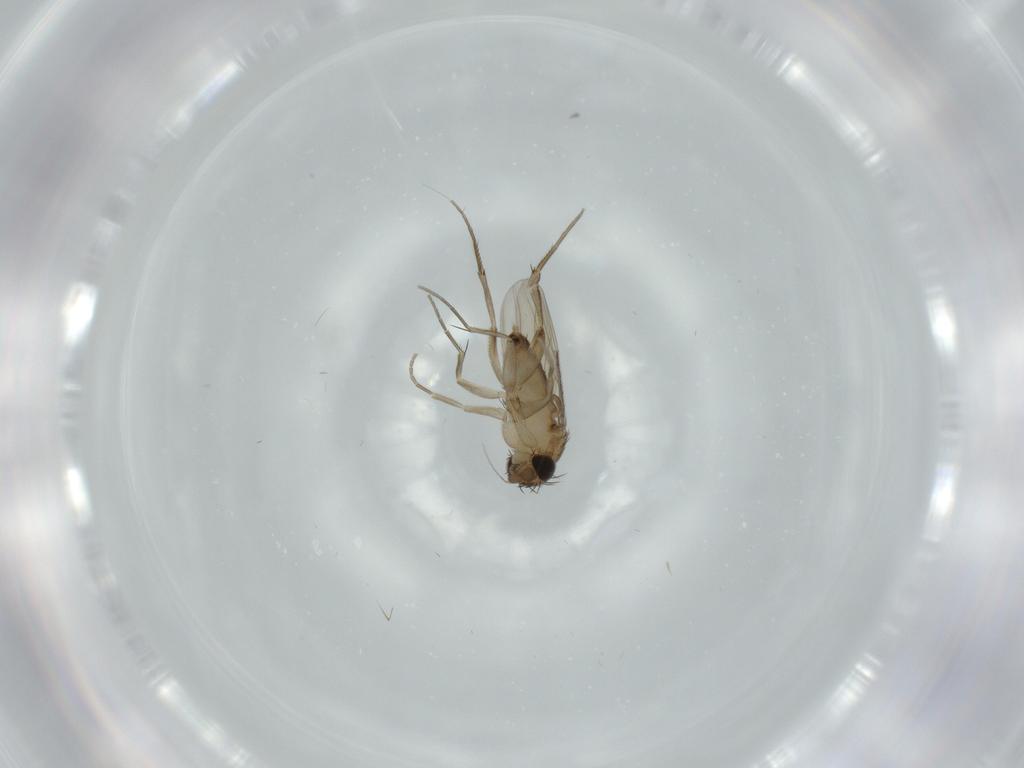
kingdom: Animalia
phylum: Arthropoda
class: Insecta
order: Diptera
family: Phoridae
